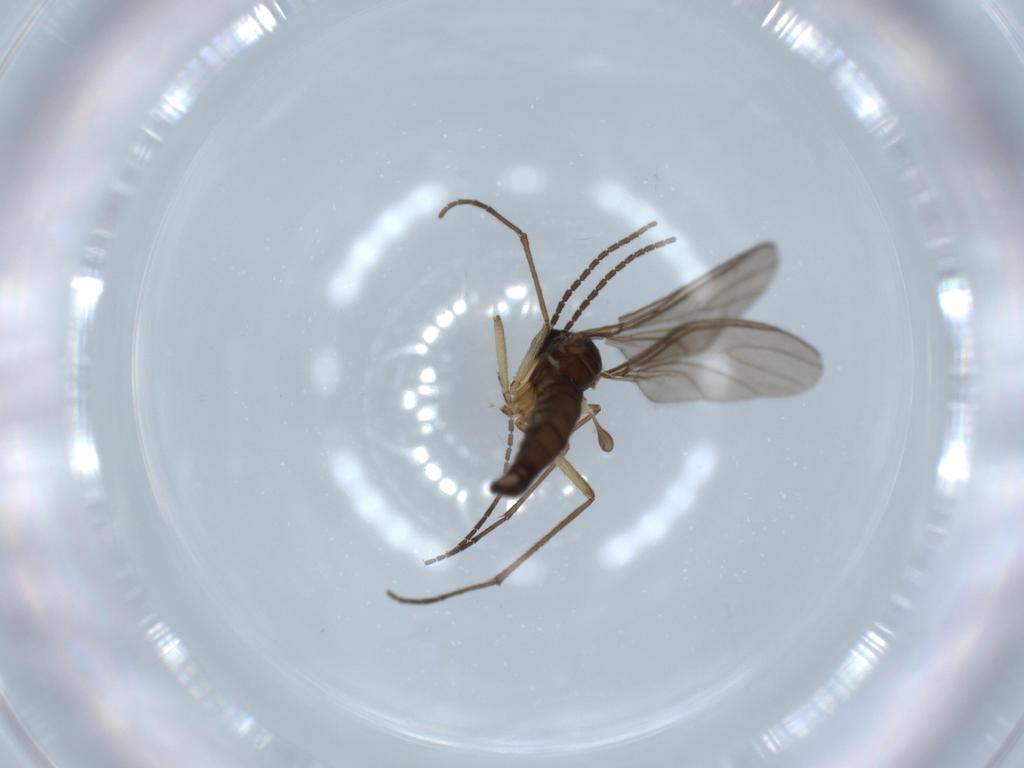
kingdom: Animalia
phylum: Arthropoda
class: Insecta
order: Diptera
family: Sciaridae
